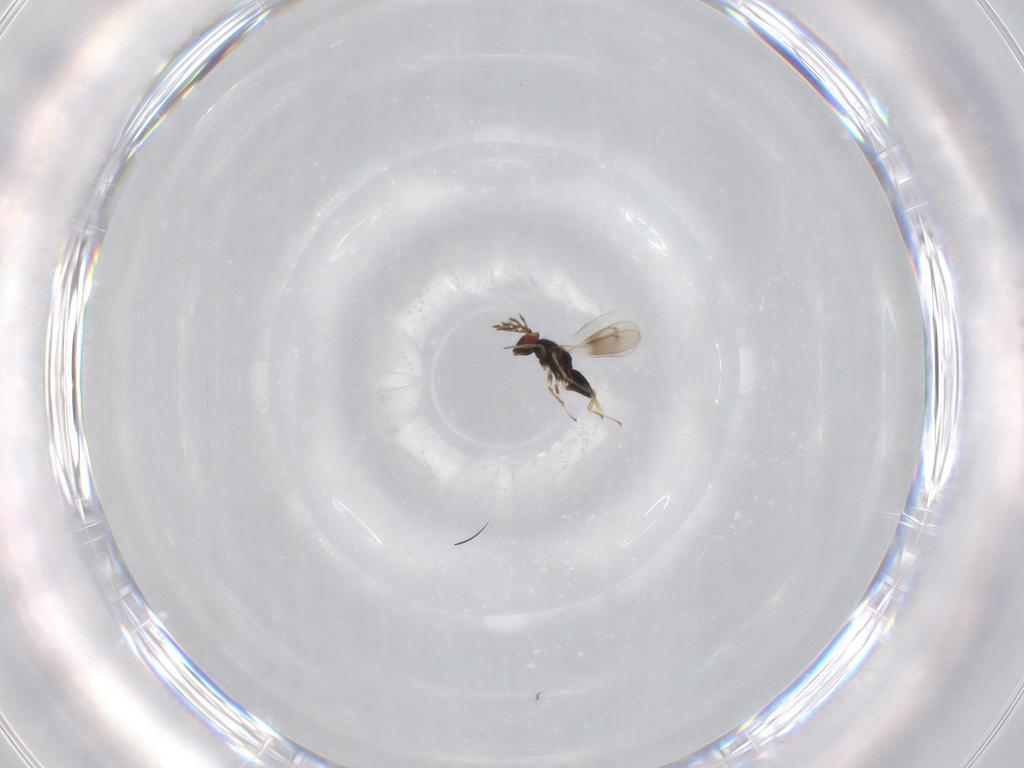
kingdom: Animalia
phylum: Arthropoda
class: Insecta
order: Hymenoptera
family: Eulophidae
